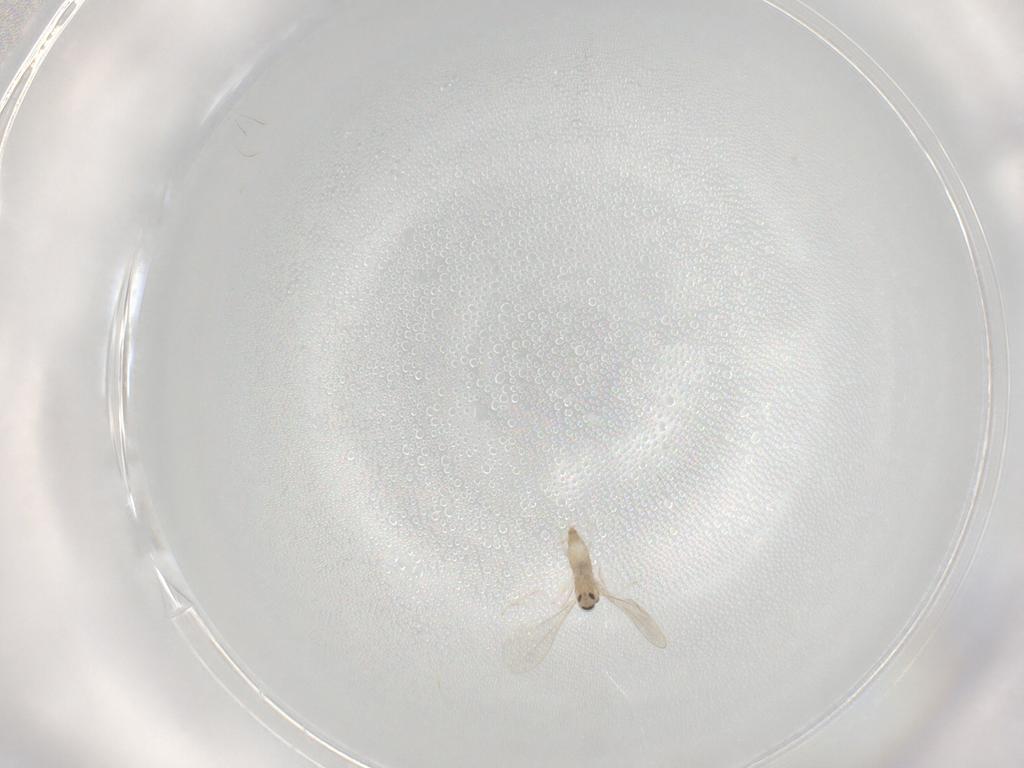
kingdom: Animalia
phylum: Arthropoda
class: Insecta
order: Diptera
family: Cecidomyiidae
